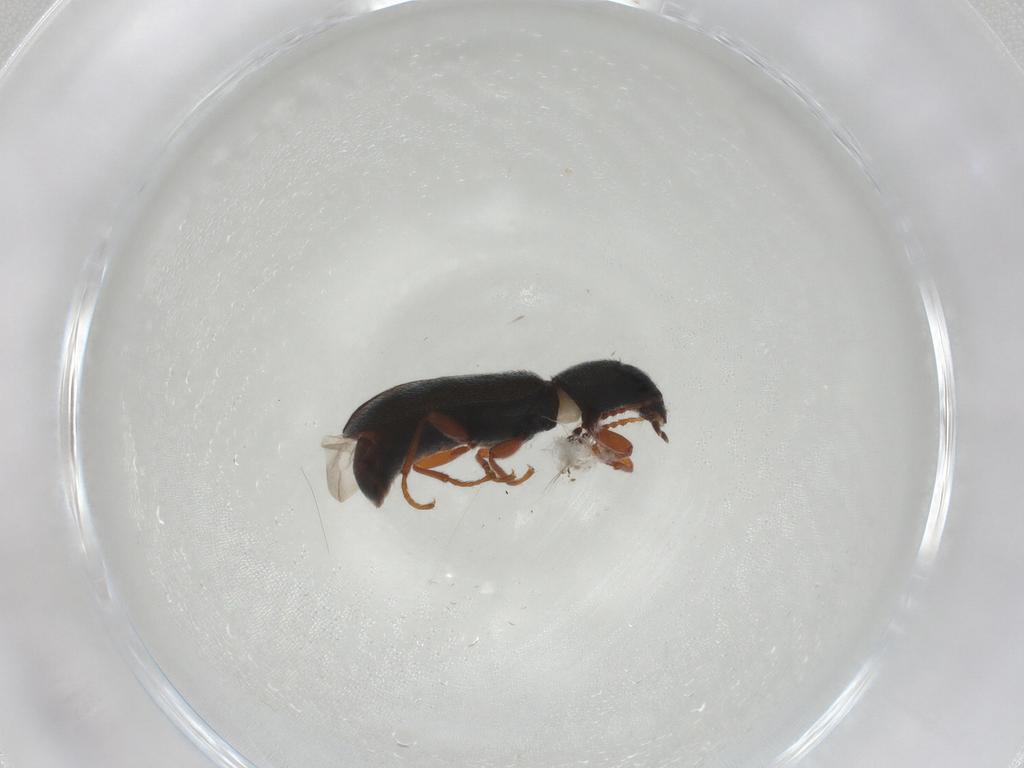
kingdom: Animalia
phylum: Arthropoda
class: Insecta
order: Coleoptera
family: Melyridae
